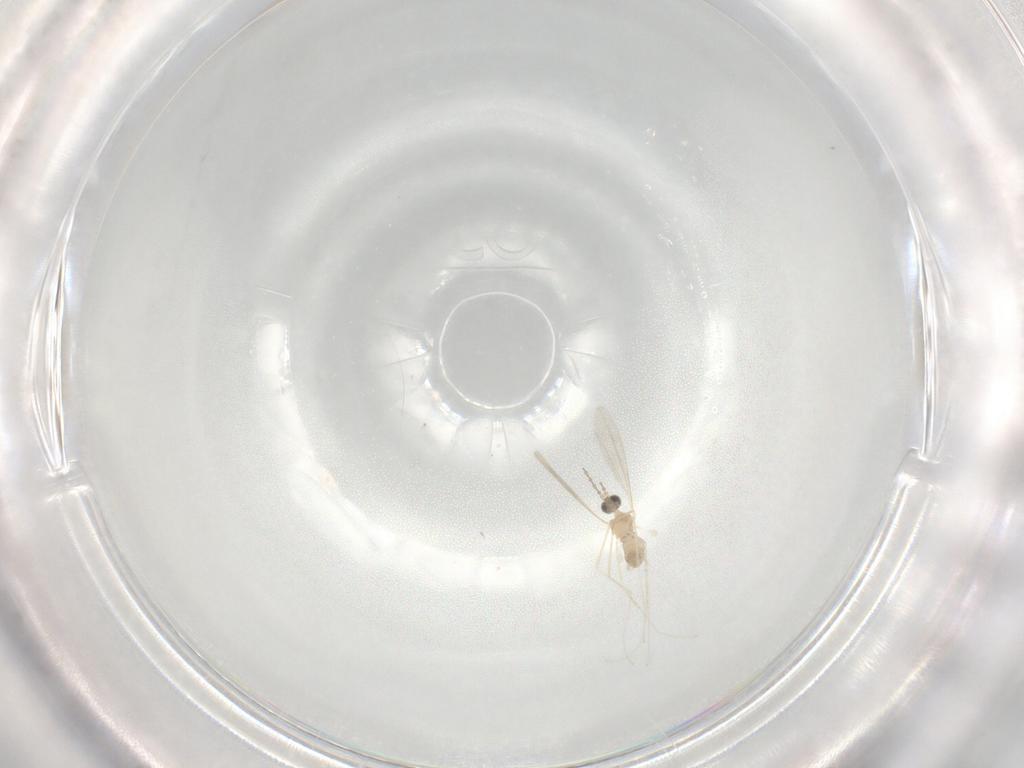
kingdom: Animalia
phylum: Arthropoda
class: Insecta
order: Diptera
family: Cecidomyiidae
